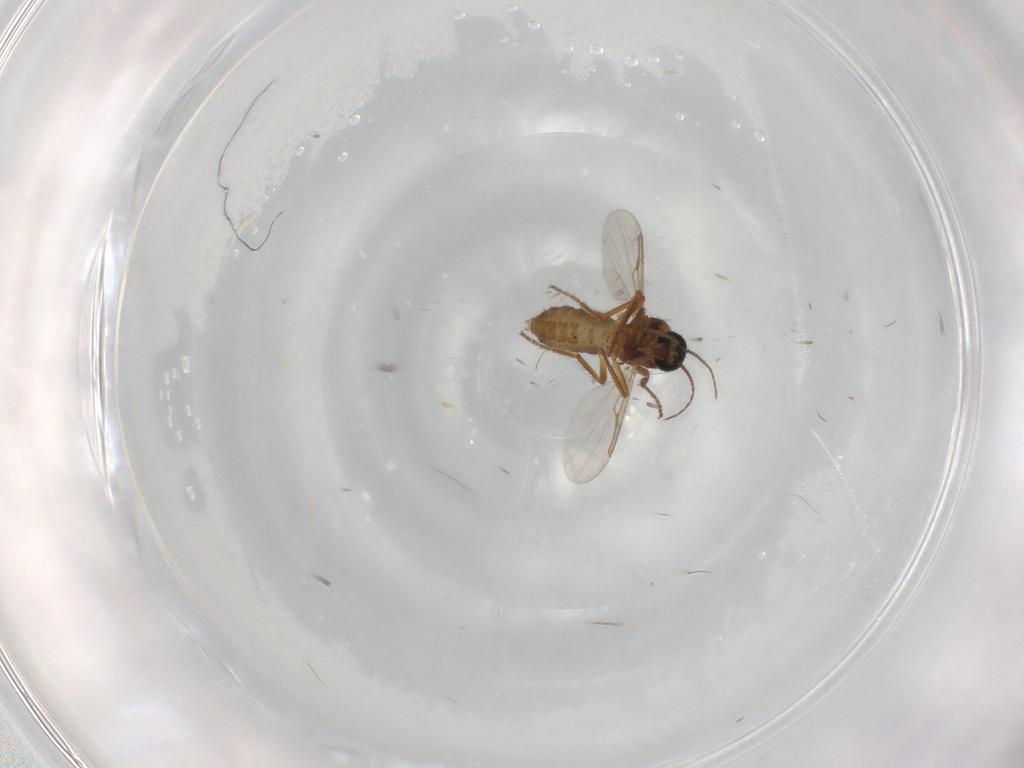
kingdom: Animalia
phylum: Arthropoda
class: Insecta
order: Diptera
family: Ceratopogonidae
